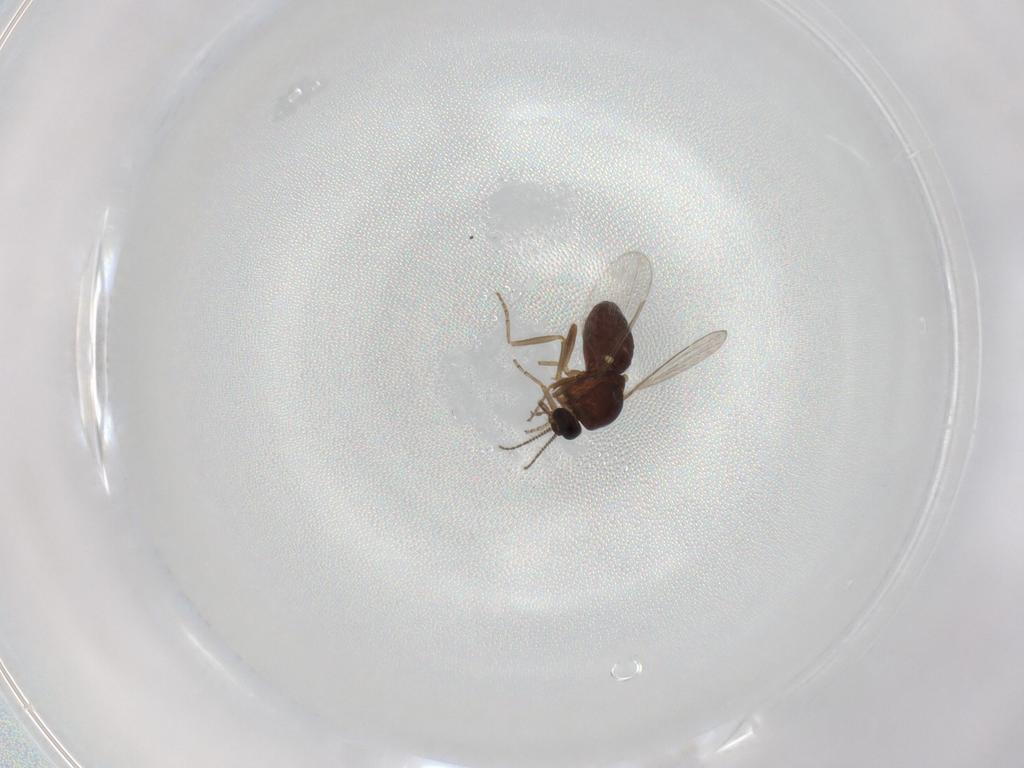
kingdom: Animalia
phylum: Arthropoda
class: Insecta
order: Diptera
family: Ceratopogonidae
